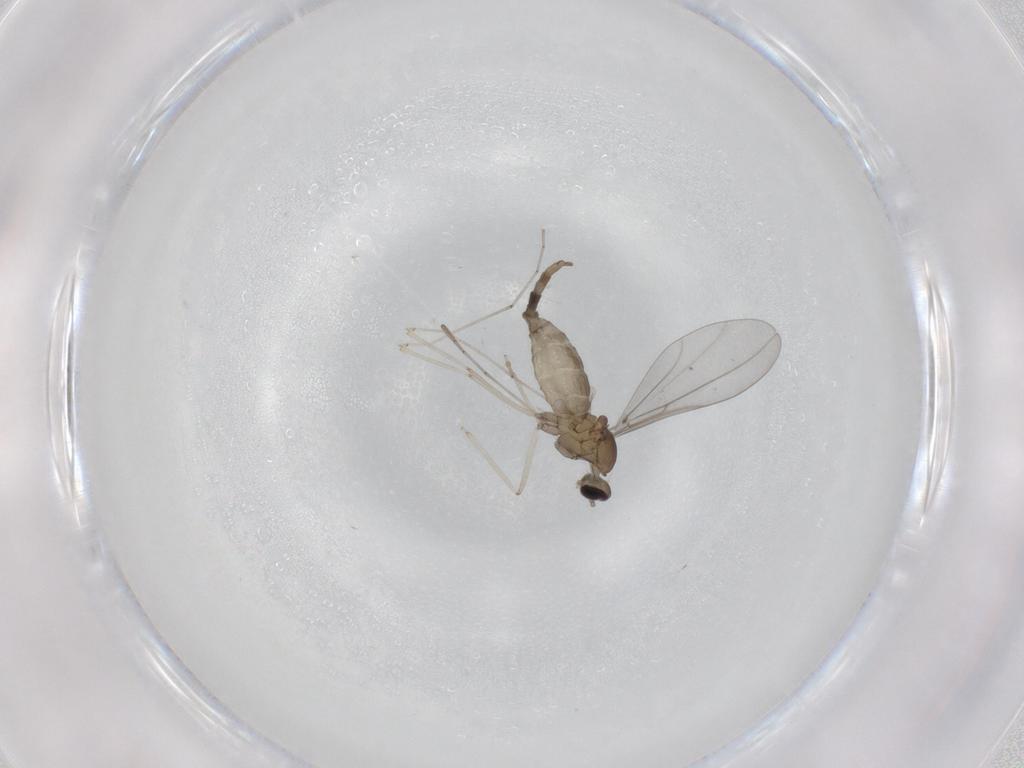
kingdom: Animalia
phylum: Arthropoda
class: Insecta
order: Diptera
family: Cecidomyiidae
